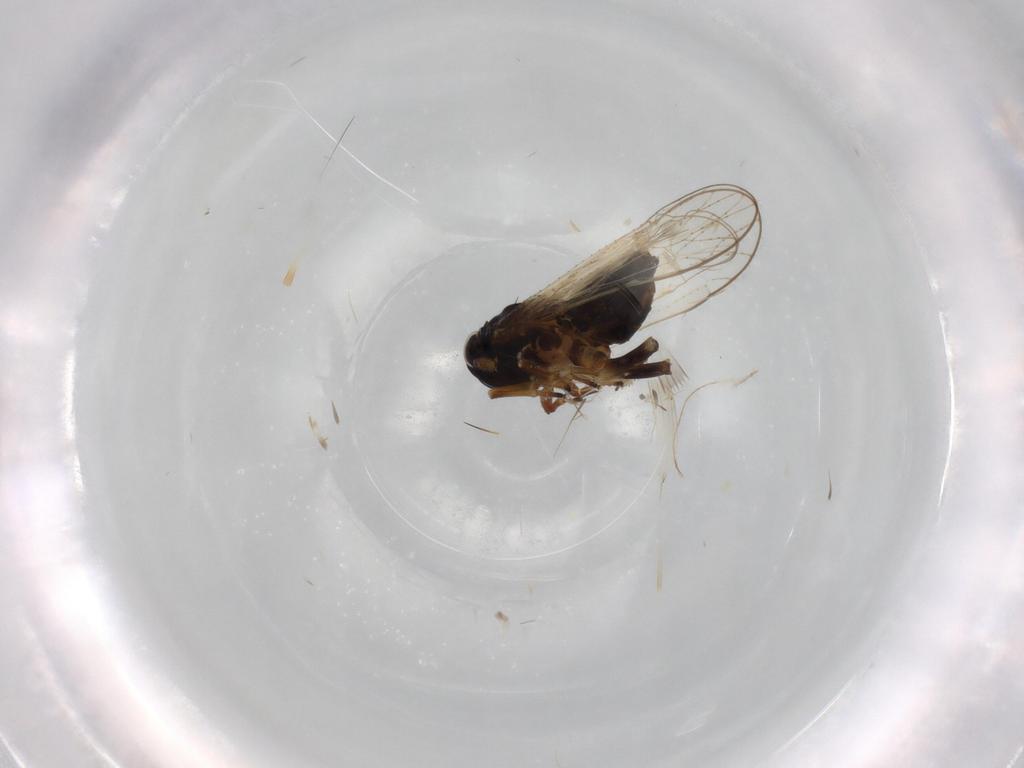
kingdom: Animalia
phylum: Arthropoda
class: Insecta
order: Hemiptera
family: Delphacidae
